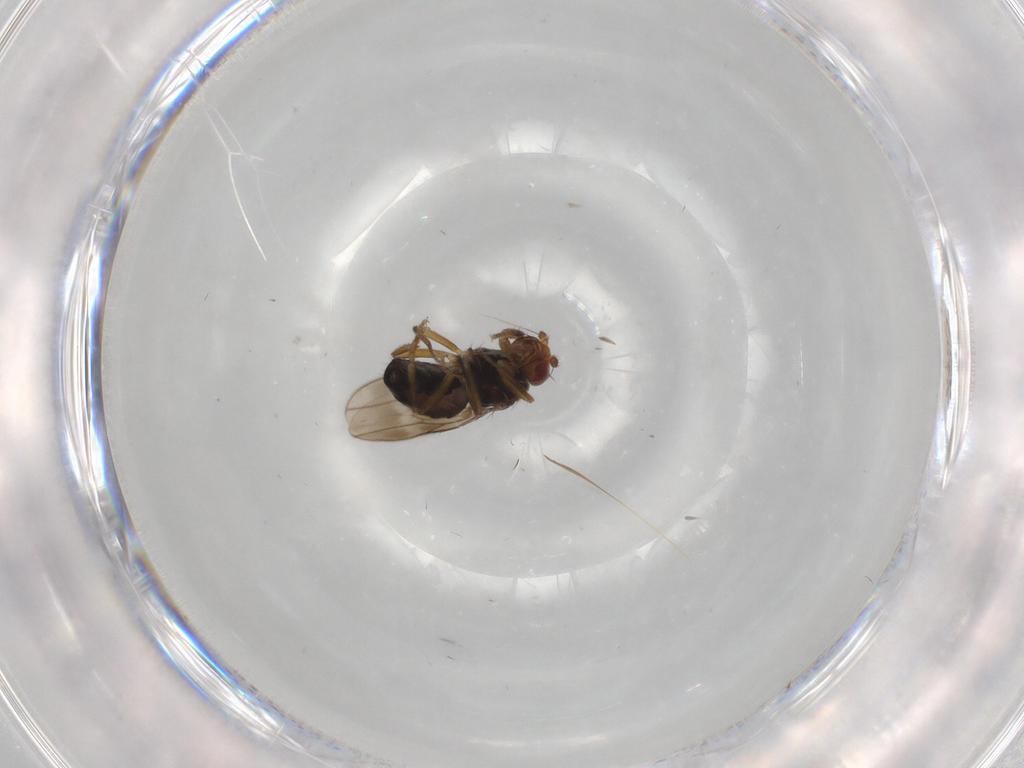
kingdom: Animalia
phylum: Arthropoda
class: Insecta
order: Diptera
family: Sphaeroceridae
